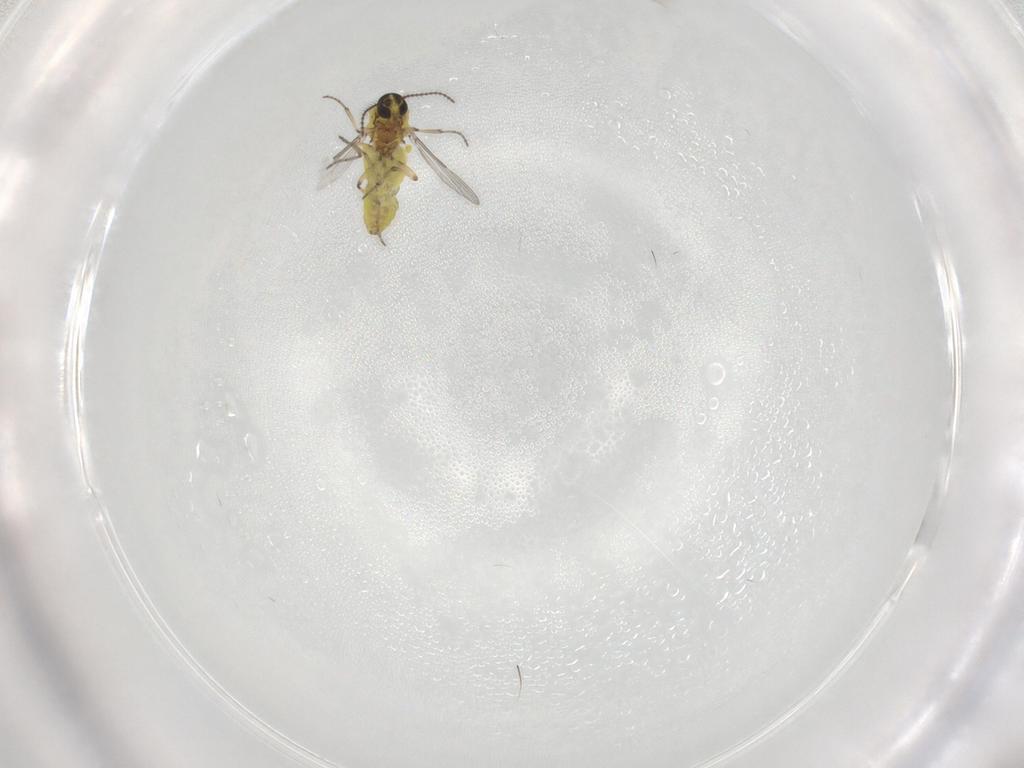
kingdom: Animalia
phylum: Arthropoda
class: Insecta
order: Diptera
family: Ceratopogonidae
